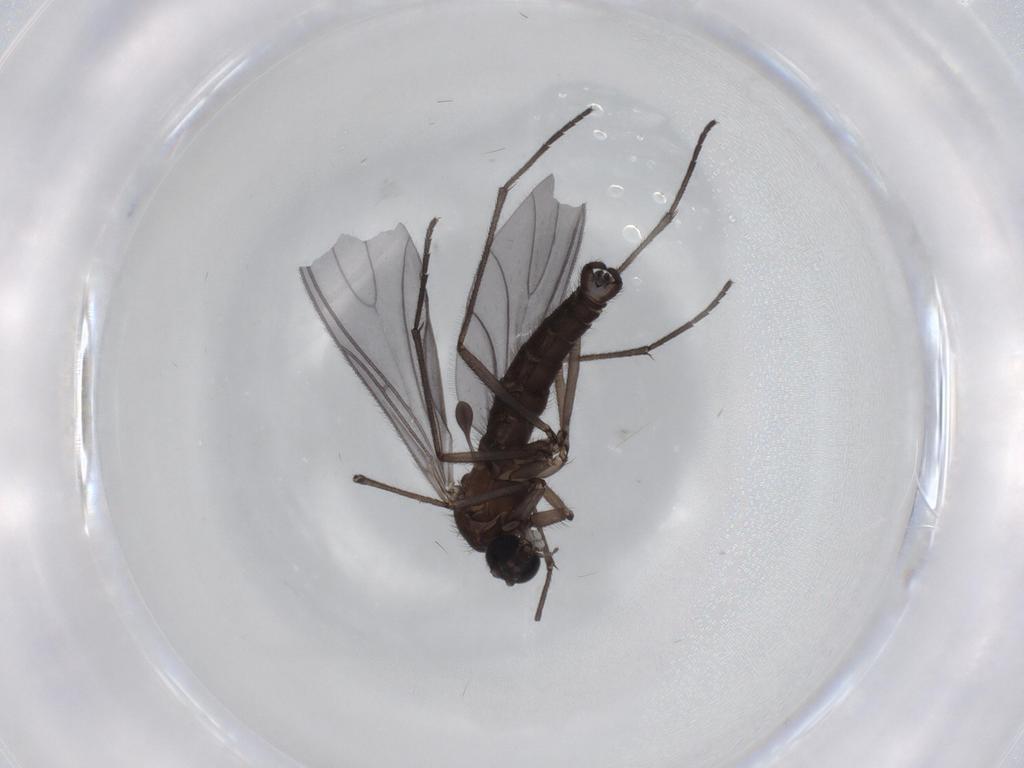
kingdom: Animalia
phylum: Arthropoda
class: Insecta
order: Diptera
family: Sciaridae
